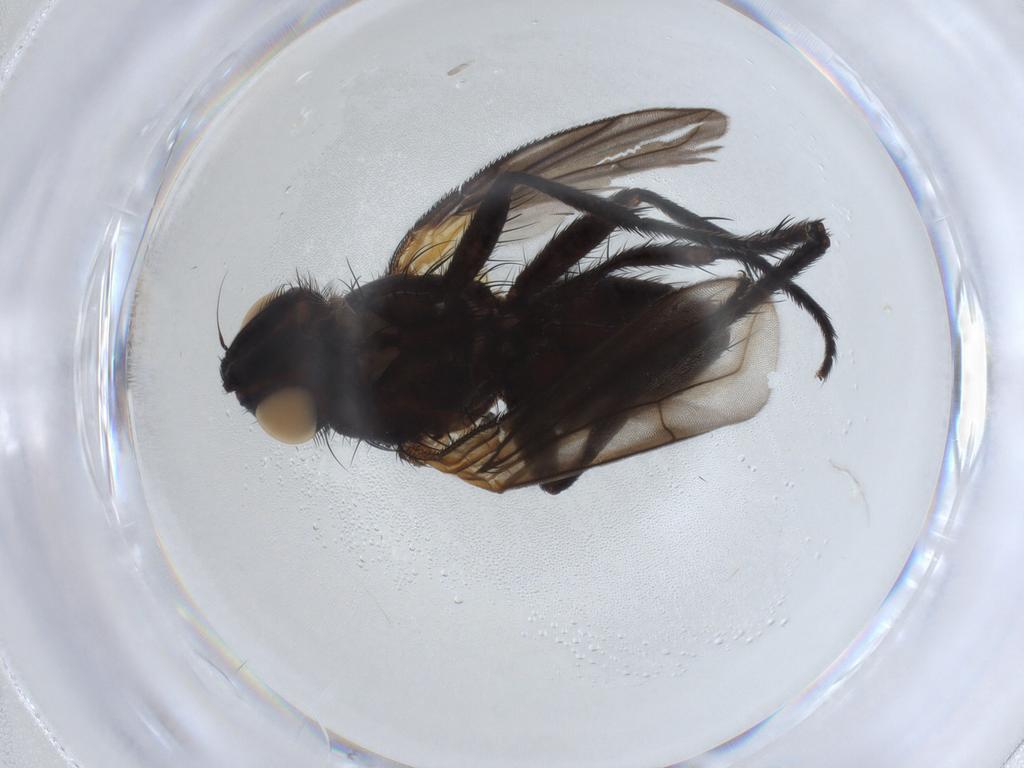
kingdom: Animalia
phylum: Arthropoda
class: Insecta
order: Diptera
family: Tachinidae
